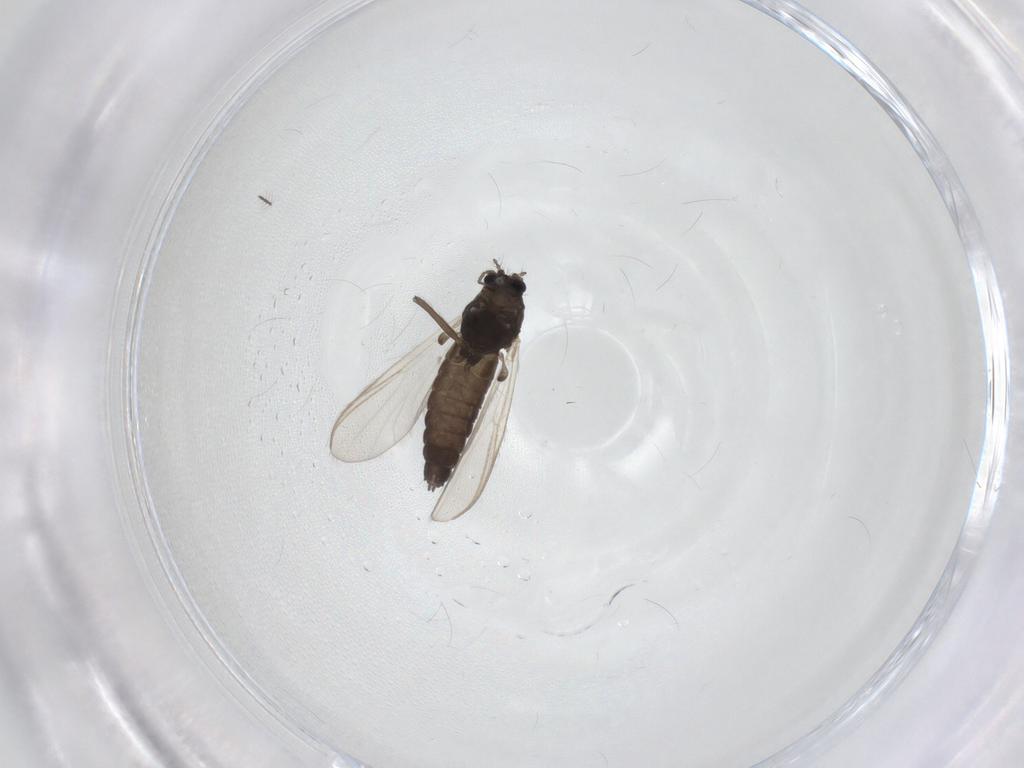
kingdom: Animalia
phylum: Arthropoda
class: Insecta
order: Diptera
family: Chironomidae
